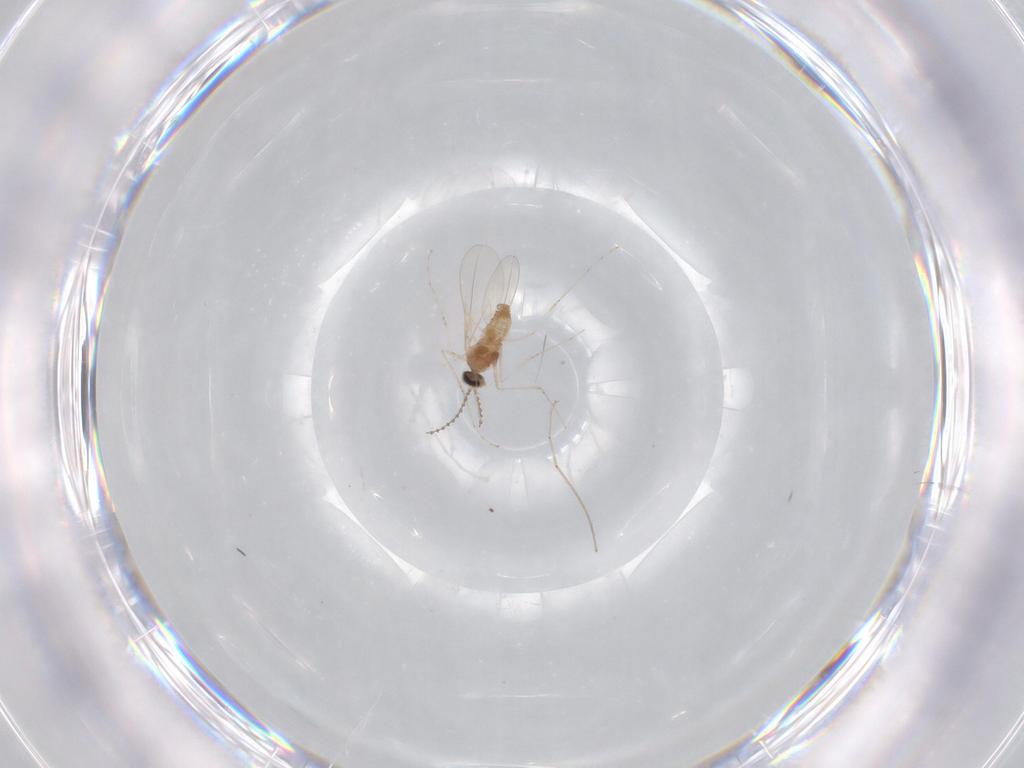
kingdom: Animalia
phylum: Arthropoda
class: Insecta
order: Diptera
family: Cecidomyiidae
